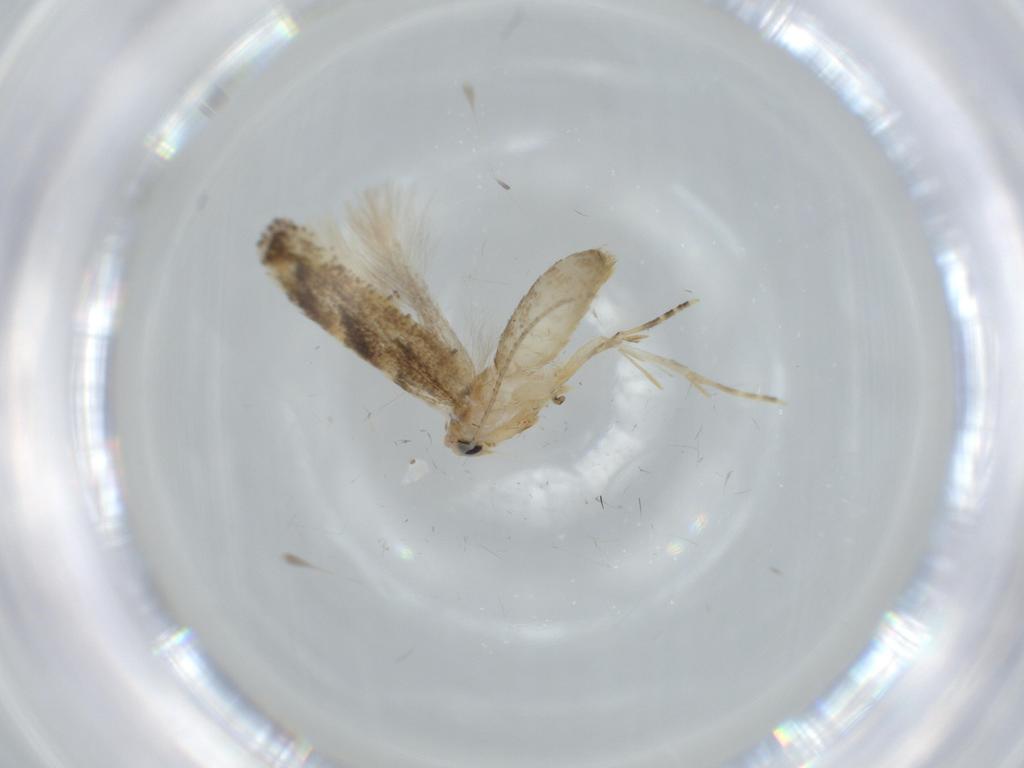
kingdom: Animalia
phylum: Arthropoda
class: Insecta
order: Lepidoptera
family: Bucculatricidae
